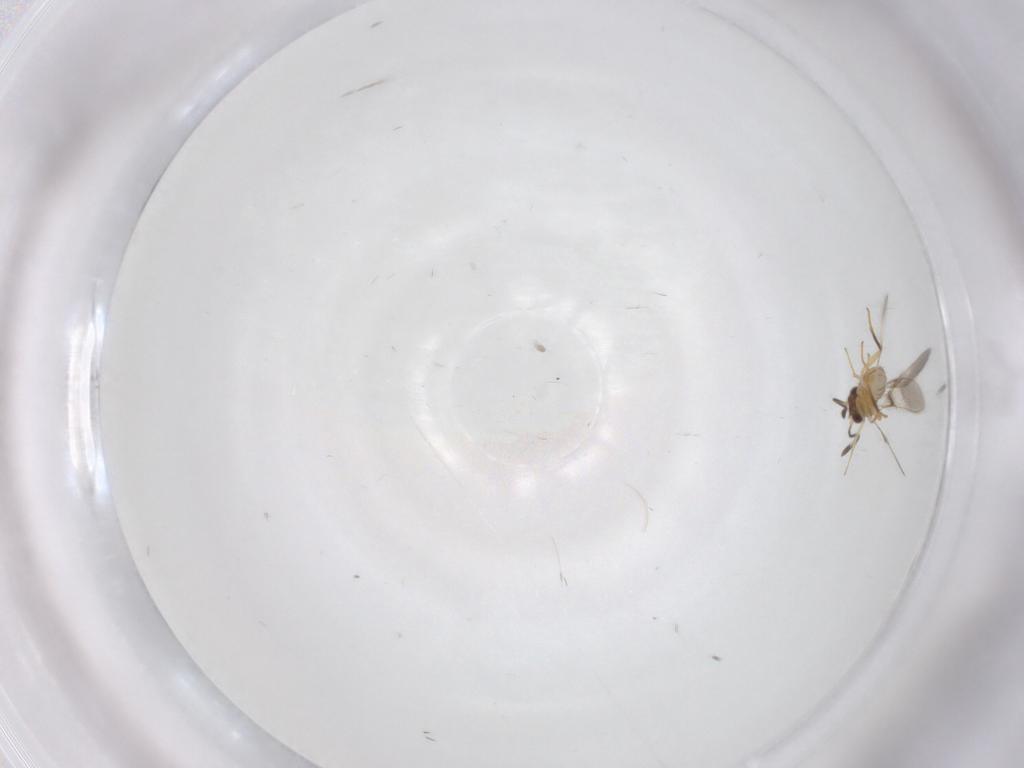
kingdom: Animalia
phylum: Arthropoda
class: Insecta
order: Hymenoptera
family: Formicidae
